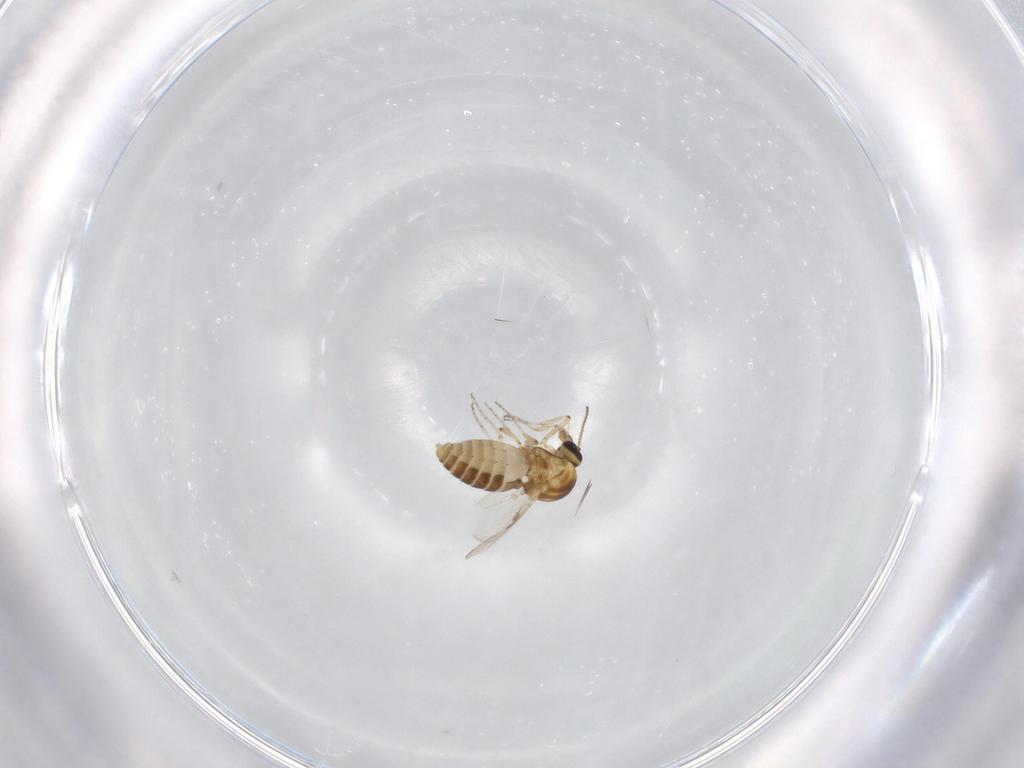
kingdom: Animalia
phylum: Arthropoda
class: Insecta
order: Diptera
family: Ceratopogonidae
